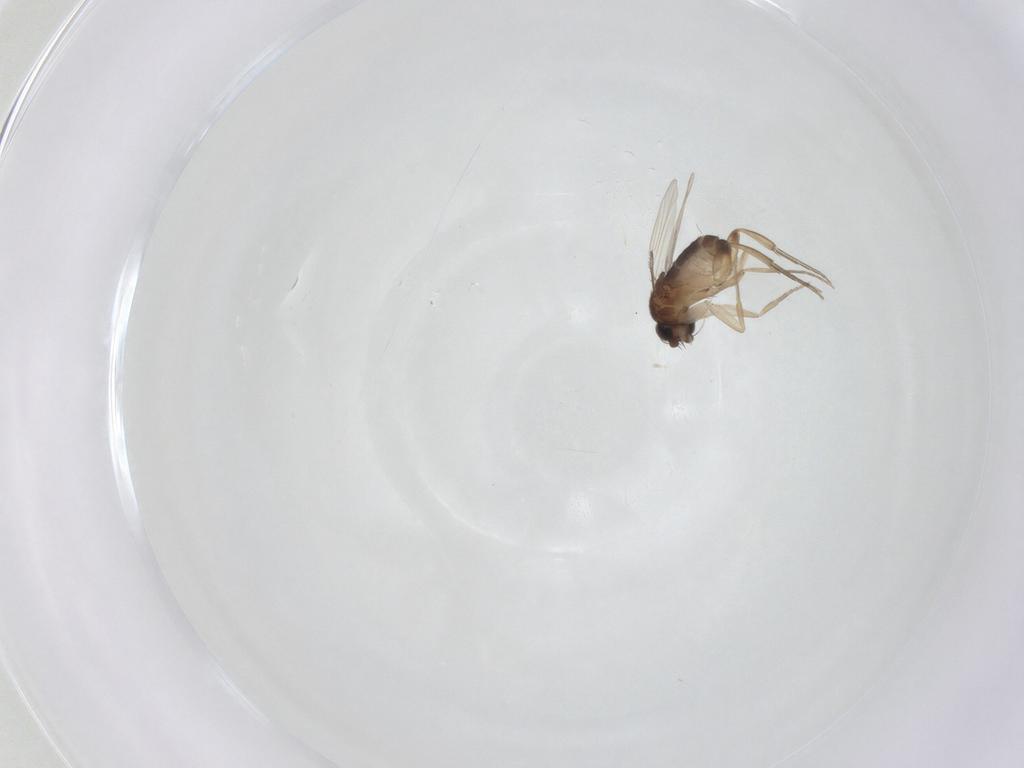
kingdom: Animalia
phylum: Arthropoda
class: Insecta
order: Diptera
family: Phoridae
